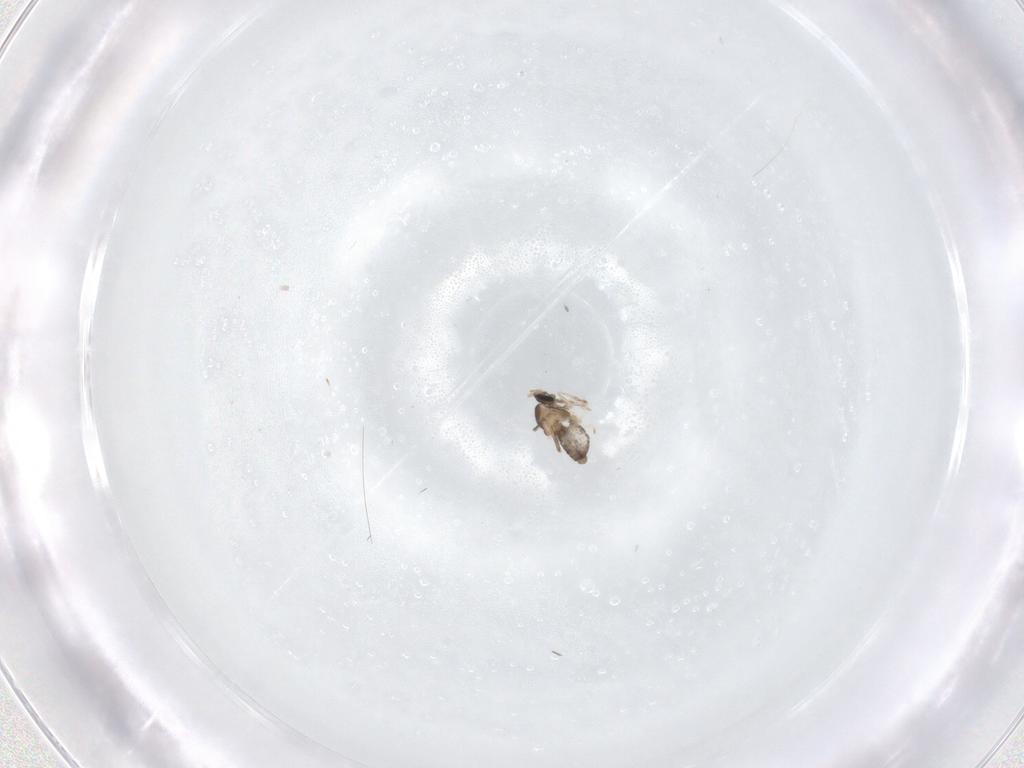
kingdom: Animalia
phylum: Arthropoda
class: Insecta
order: Diptera
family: Cecidomyiidae
